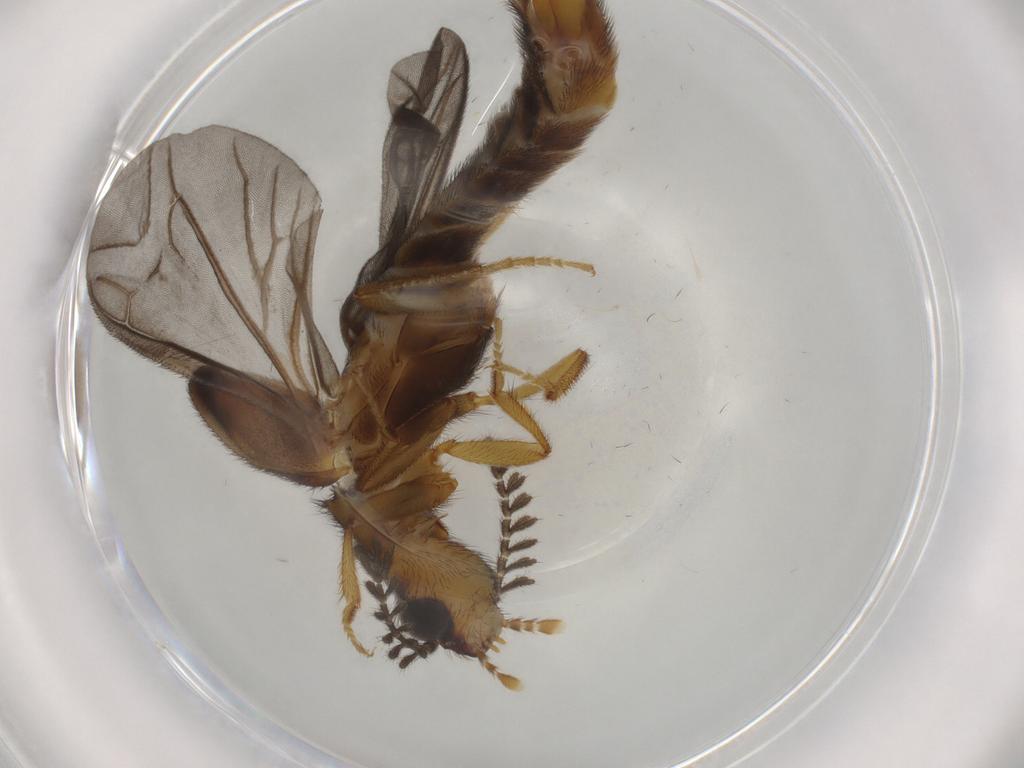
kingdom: Animalia
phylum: Arthropoda
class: Insecta
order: Coleoptera
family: Phengodidae
